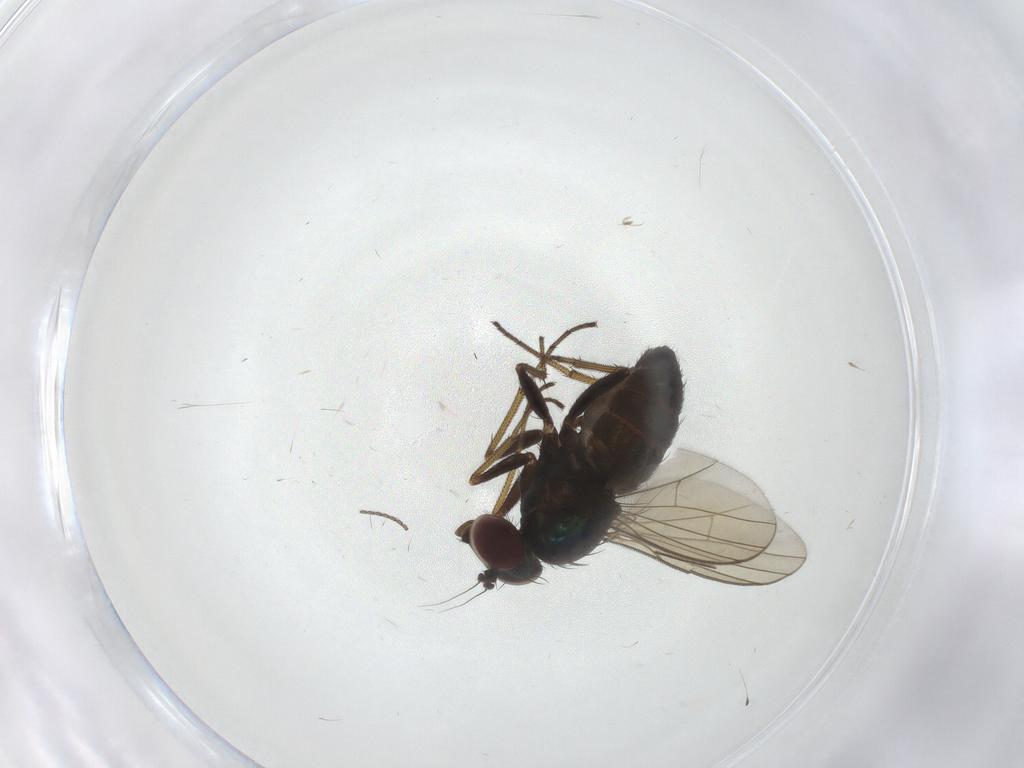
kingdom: Animalia
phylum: Arthropoda
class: Insecta
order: Diptera
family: Dolichopodidae
